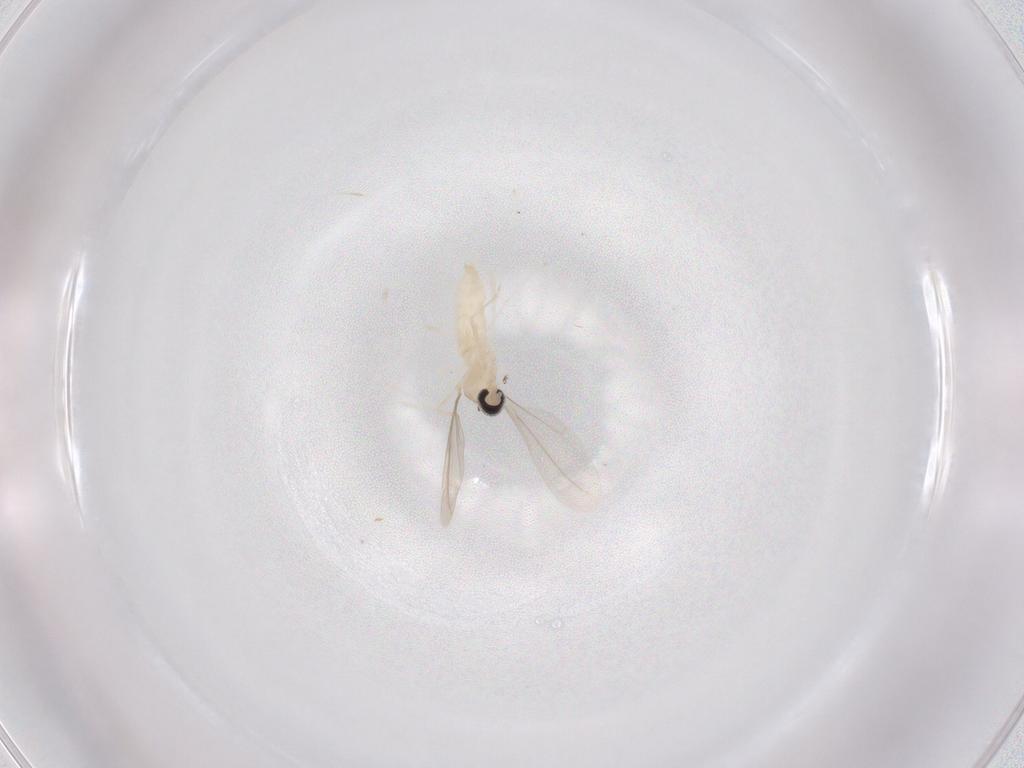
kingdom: Animalia
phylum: Arthropoda
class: Insecta
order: Diptera
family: Cecidomyiidae
